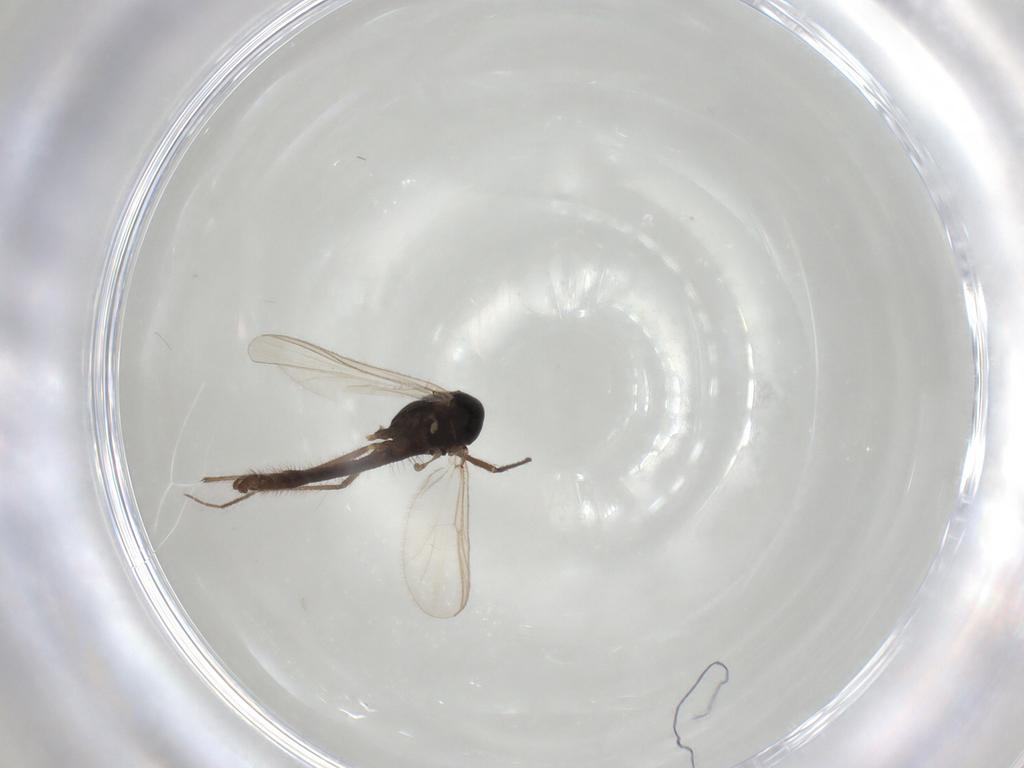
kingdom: Animalia
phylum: Arthropoda
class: Insecta
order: Diptera
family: Chironomidae
